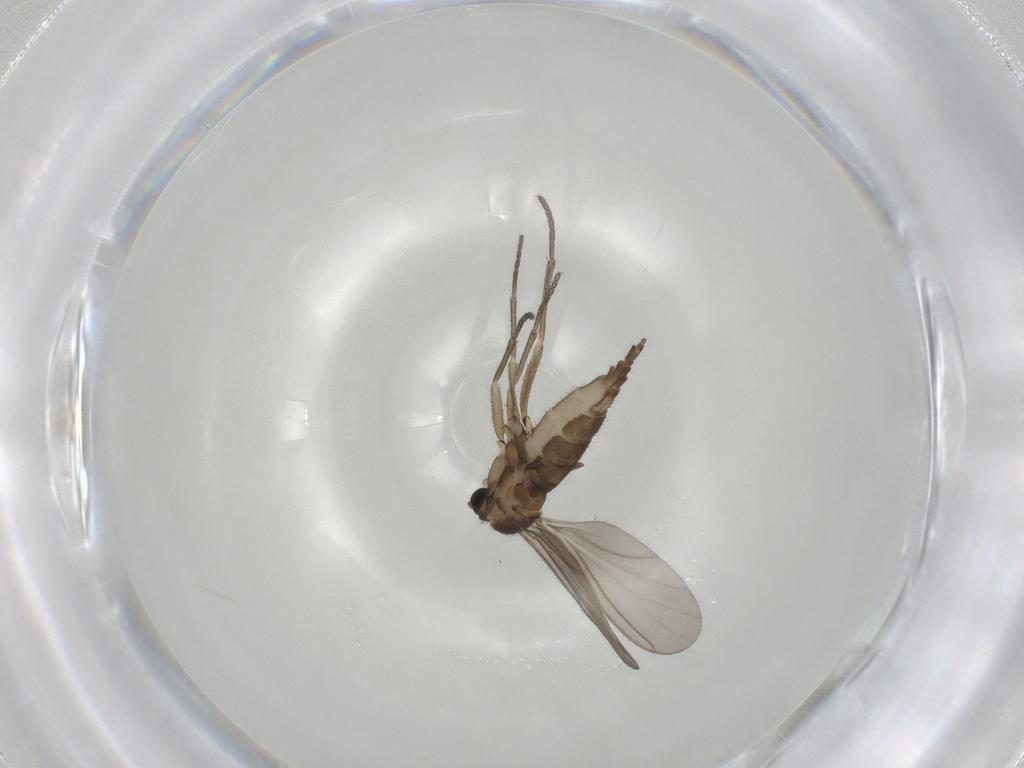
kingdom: Animalia
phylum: Arthropoda
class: Insecta
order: Diptera
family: Sciaridae
